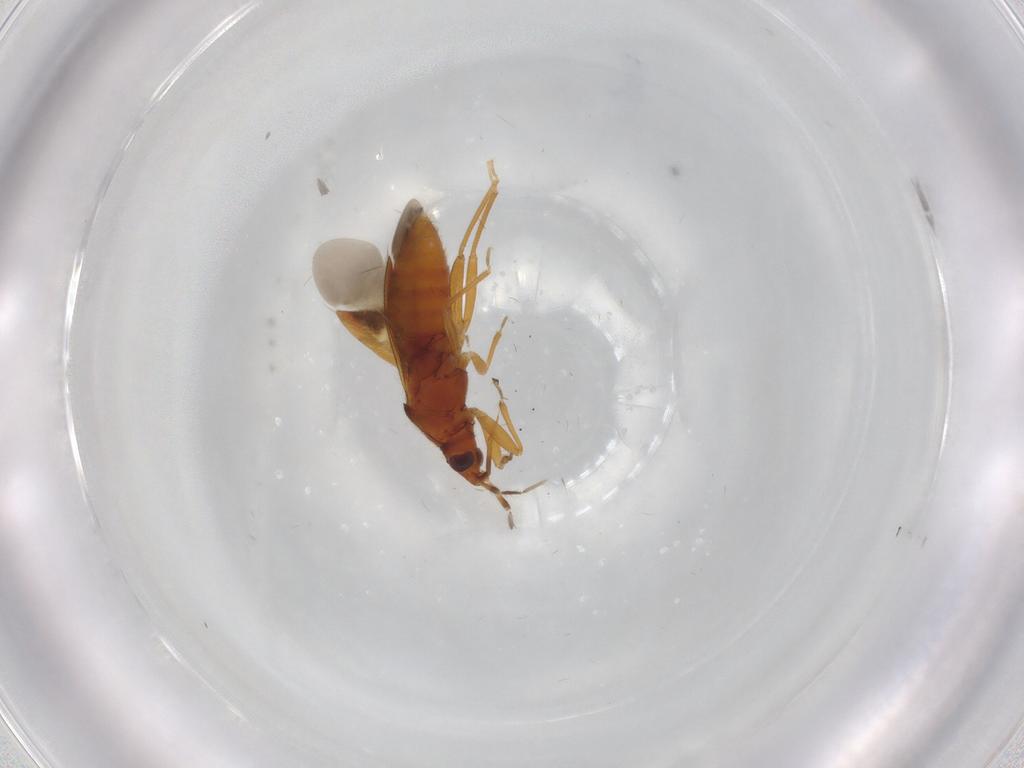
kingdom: Animalia
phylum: Arthropoda
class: Insecta
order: Hemiptera
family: Anthocoridae
